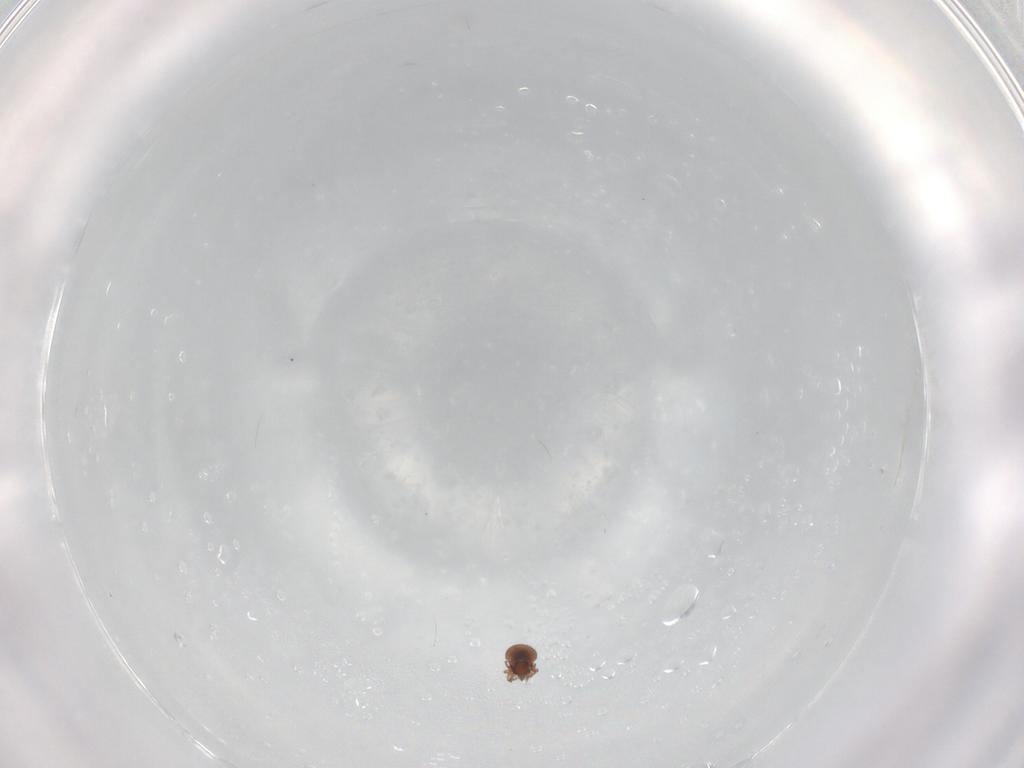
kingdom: Animalia
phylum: Arthropoda
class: Arachnida
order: Sarcoptiformes
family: Oribatulidae
